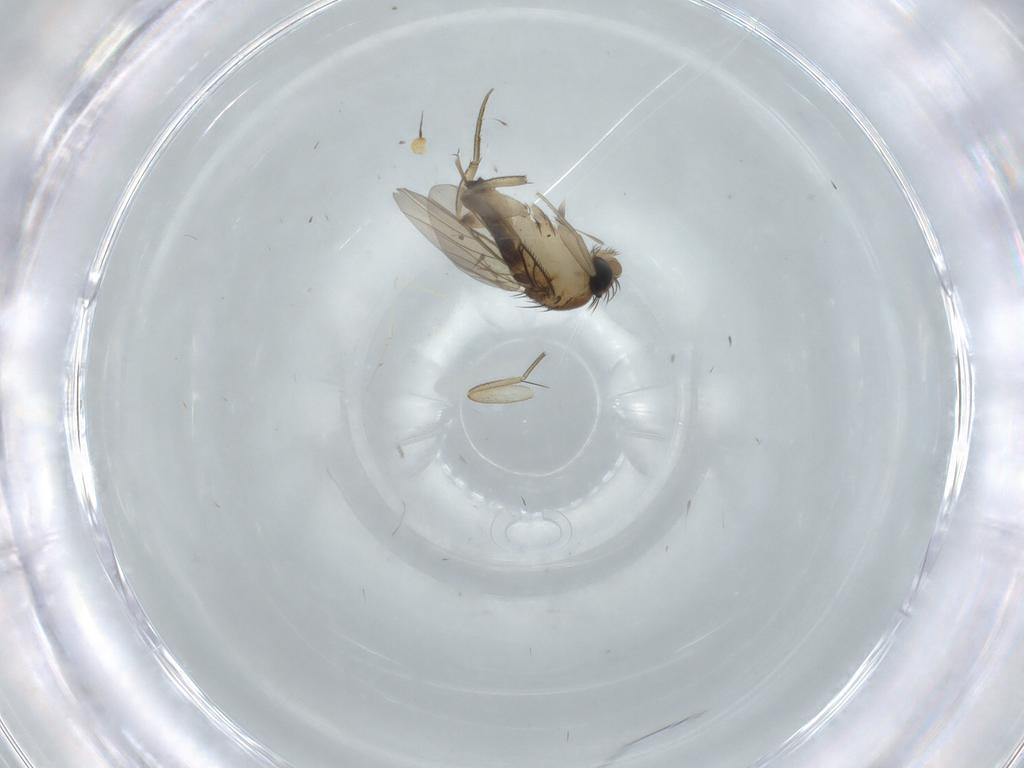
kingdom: Animalia
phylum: Arthropoda
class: Insecta
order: Diptera
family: Phoridae
